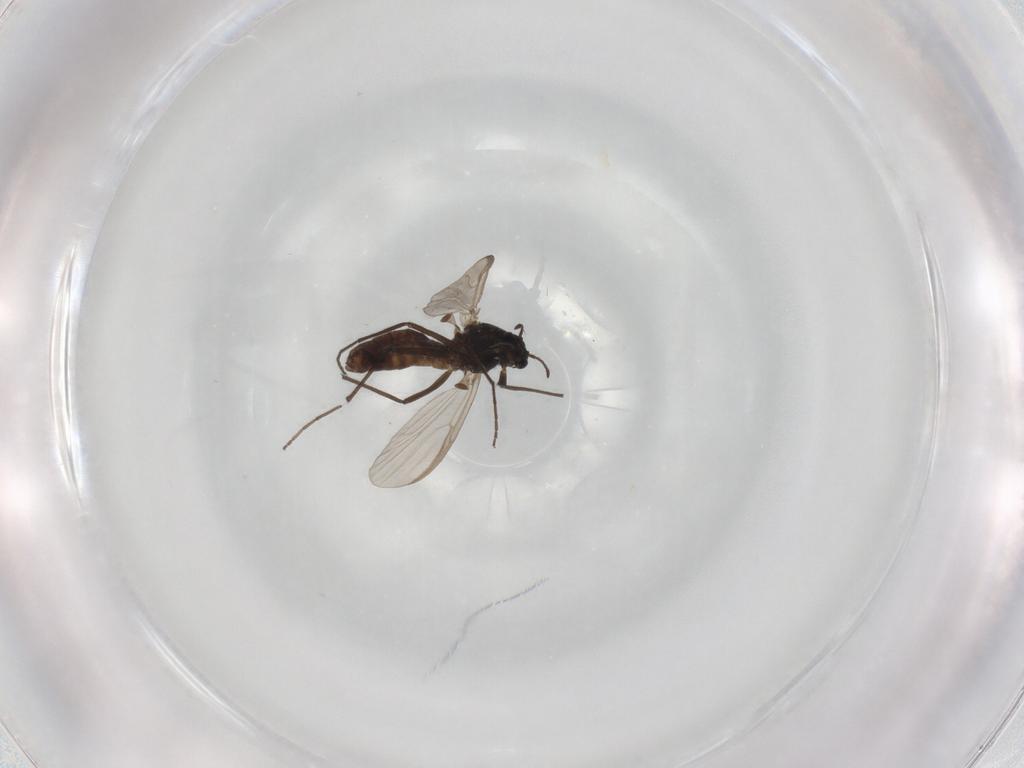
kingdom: Animalia
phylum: Arthropoda
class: Insecta
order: Diptera
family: Chironomidae
